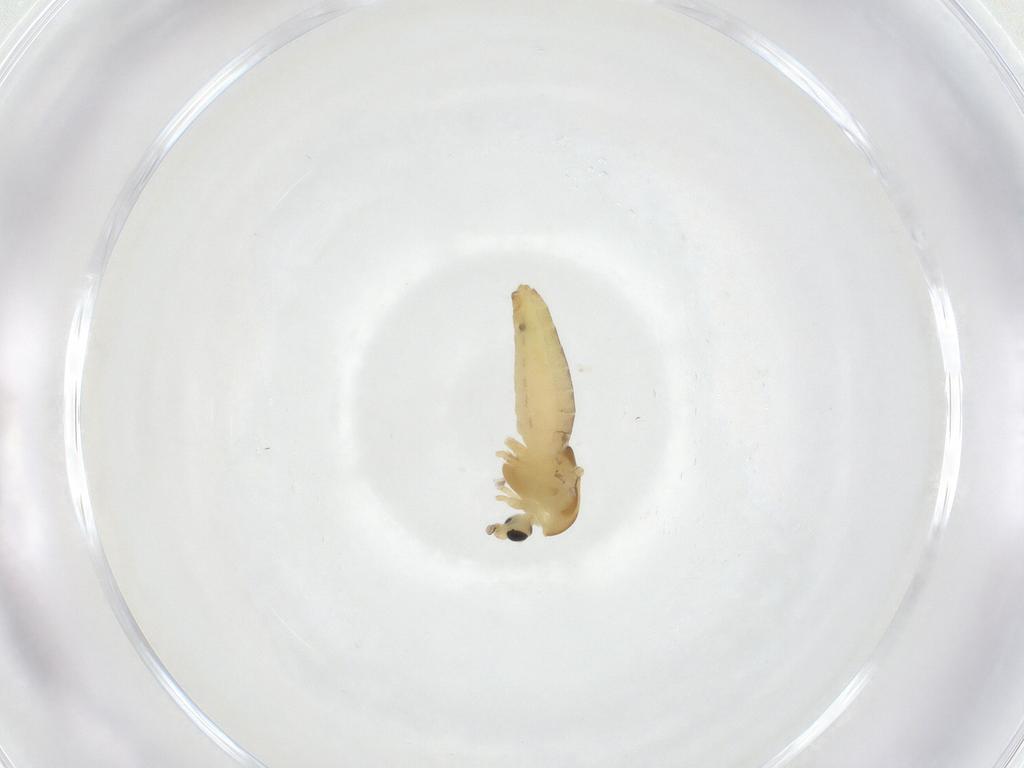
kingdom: Animalia
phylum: Arthropoda
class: Insecta
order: Diptera
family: Chironomidae
